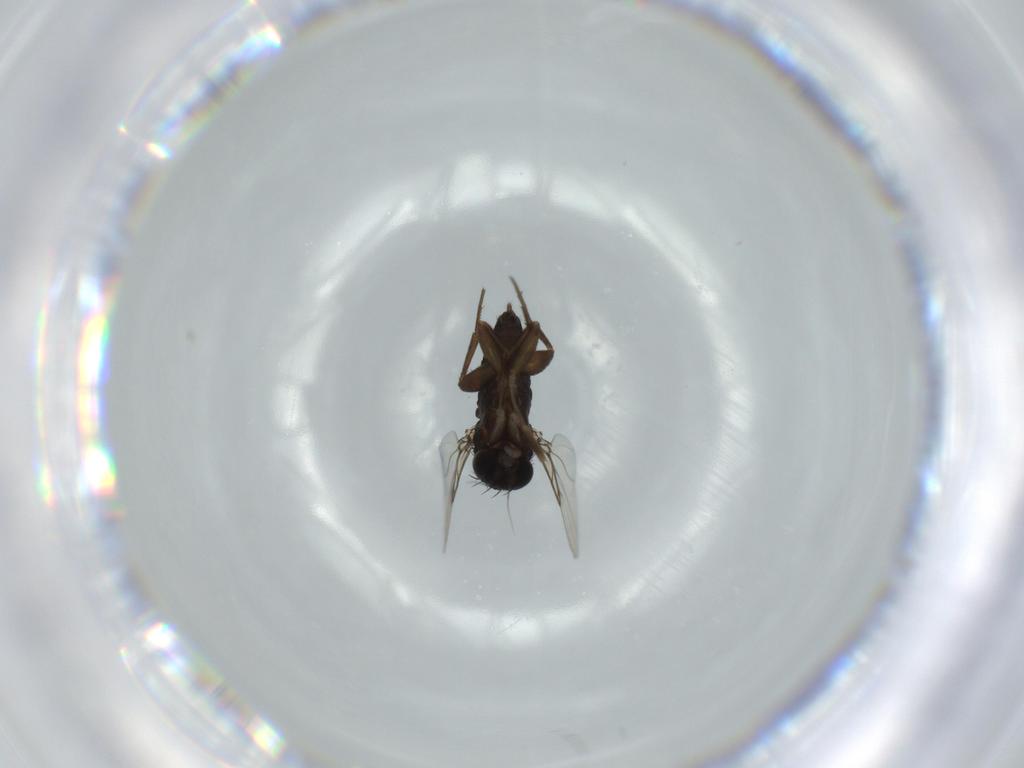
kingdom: Animalia
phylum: Arthropoda
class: Insecta
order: Diptera
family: Phoridae
